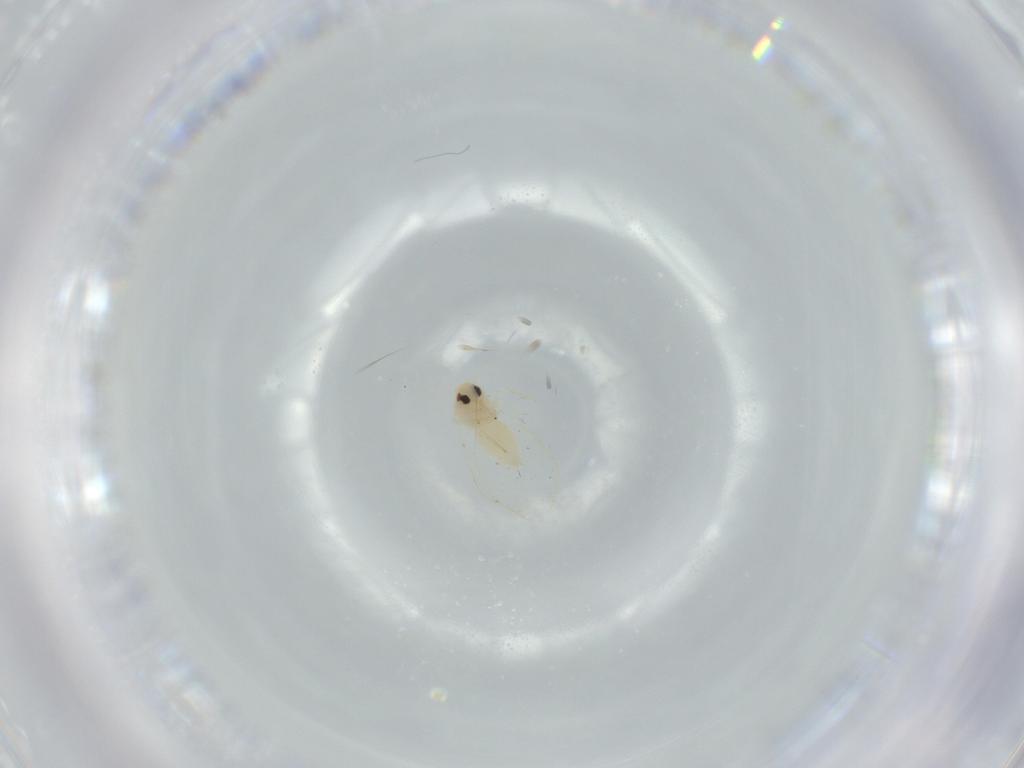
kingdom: Animalia
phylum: Arthropoda
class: Insecta
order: Hemiptera
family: Aleyrodidae
